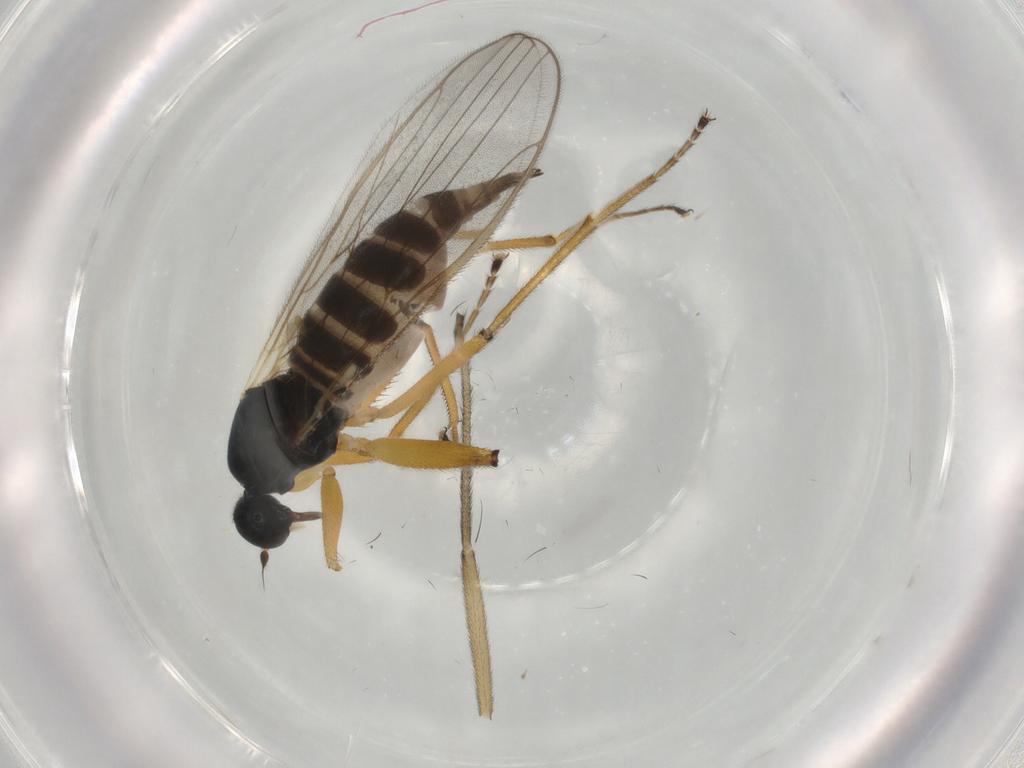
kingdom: Animalia
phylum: Arthropoda
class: Insecta
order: Diptera
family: Hybotidae
